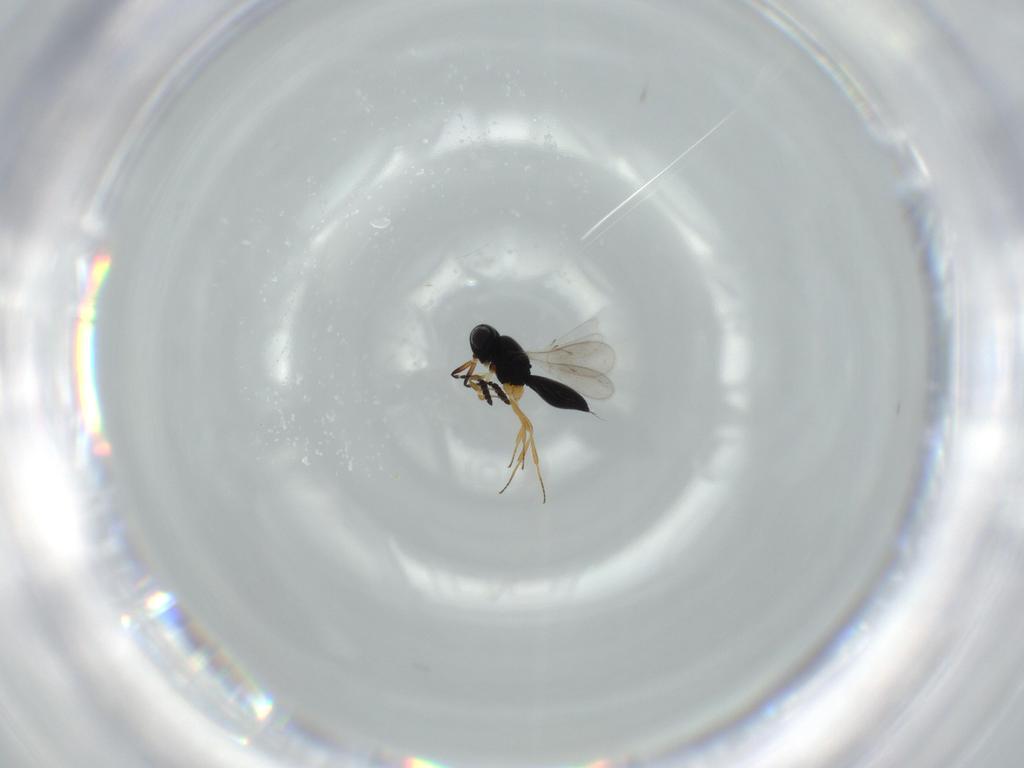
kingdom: Animalia
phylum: Arthropoda
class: Insecta
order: Hymenoptera
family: Scelionidae
